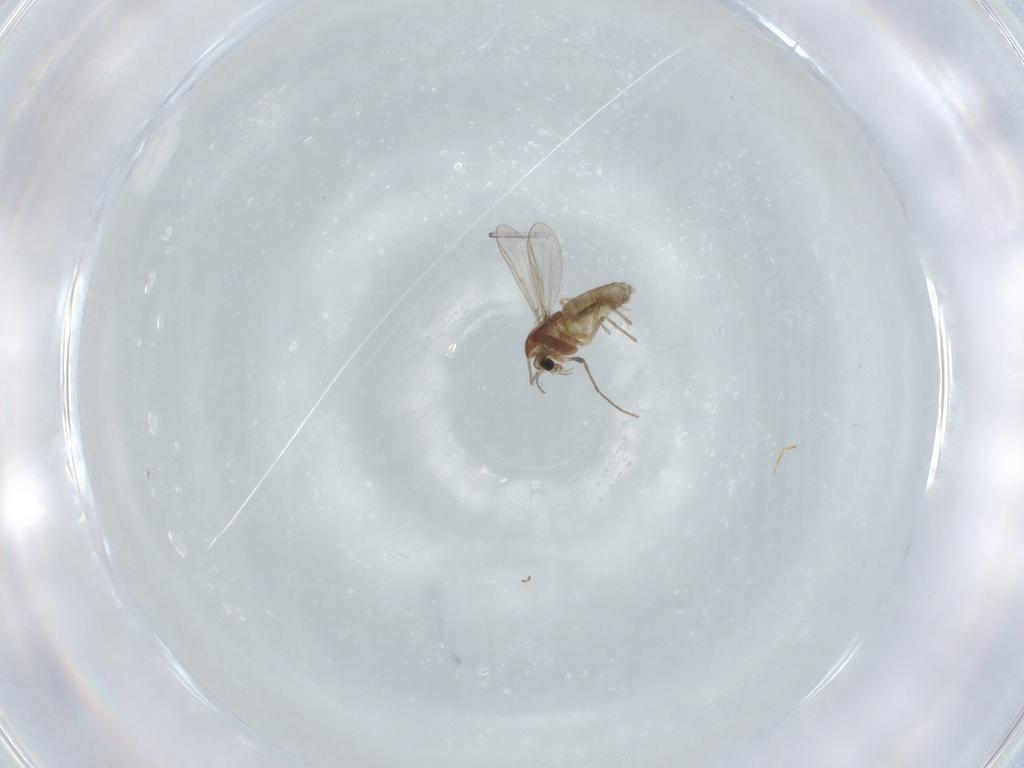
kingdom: Animalia
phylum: Arthropoda
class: Insecta
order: Diptera
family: Chironomidae
